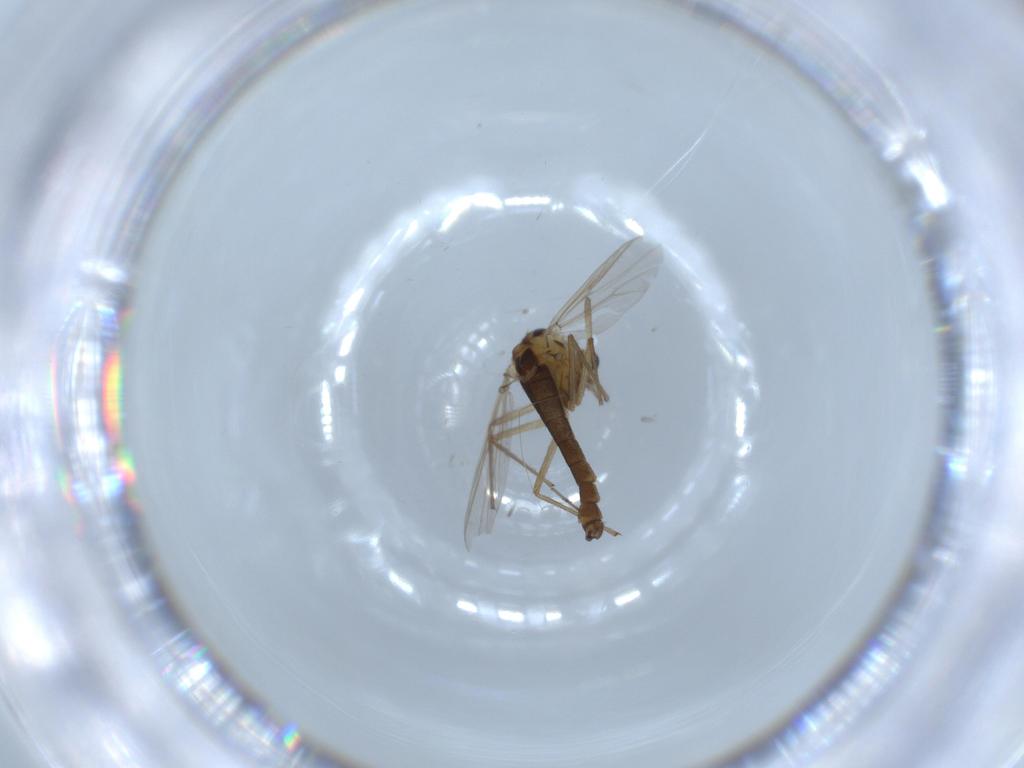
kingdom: Animalia
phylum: Arthropoda
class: Insecta
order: Diptera
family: Chironomidae
